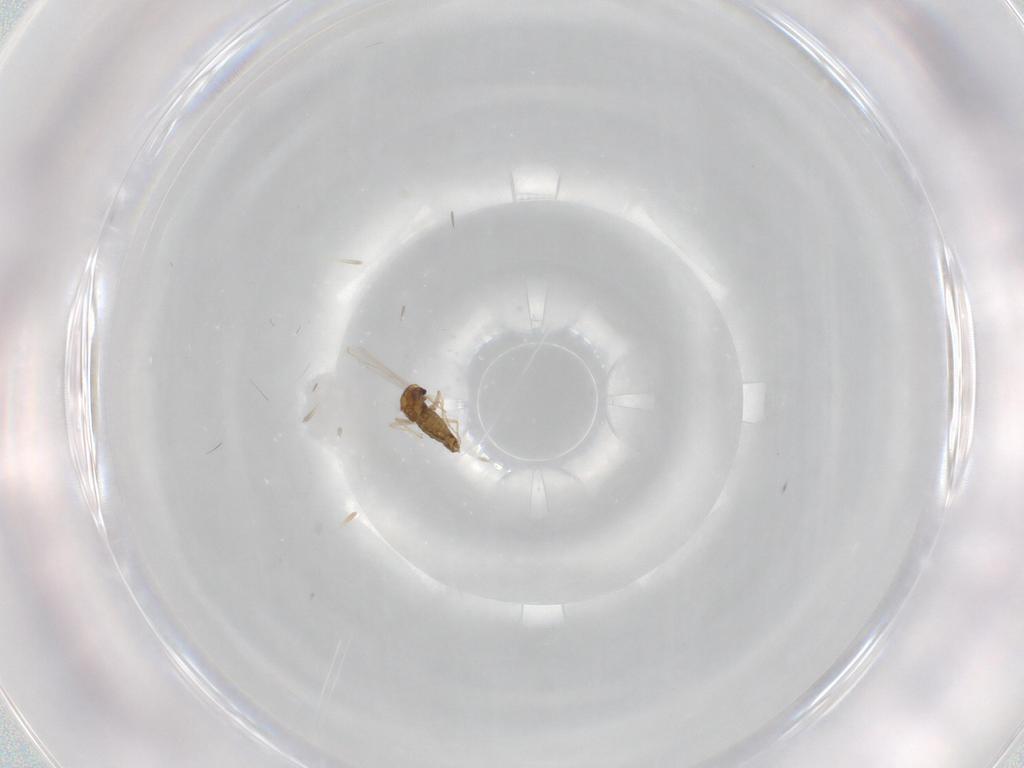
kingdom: Animalia
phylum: Arthropoda
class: Insecta
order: Diptera
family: Chironomidae
